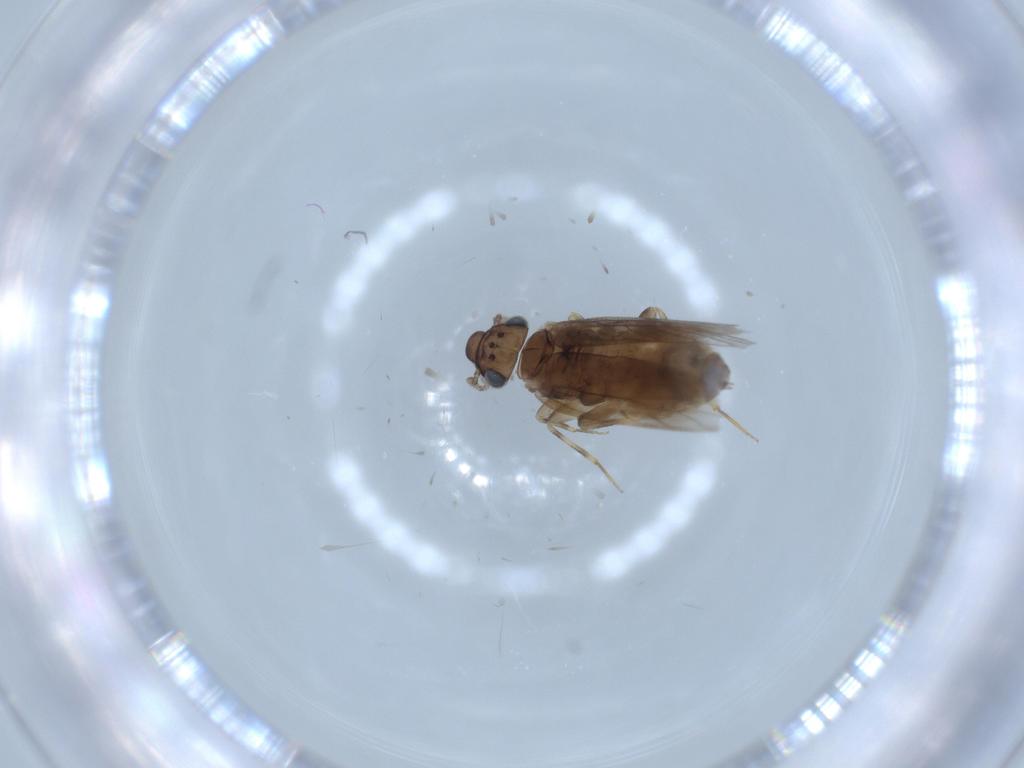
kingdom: Animalia
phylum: Arthropoda
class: Insecta
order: Psocodea
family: Lepidopsocidae
